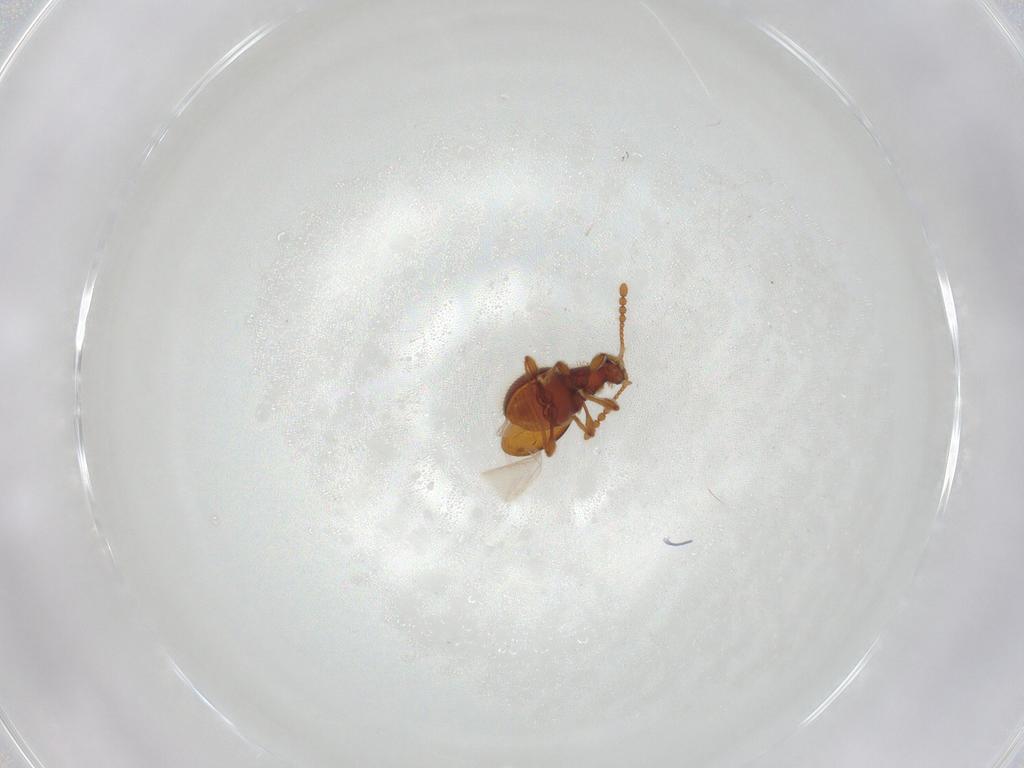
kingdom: Animalia
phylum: Arthropoda
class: Insecta
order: Coleoptera
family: Staphylinidae
